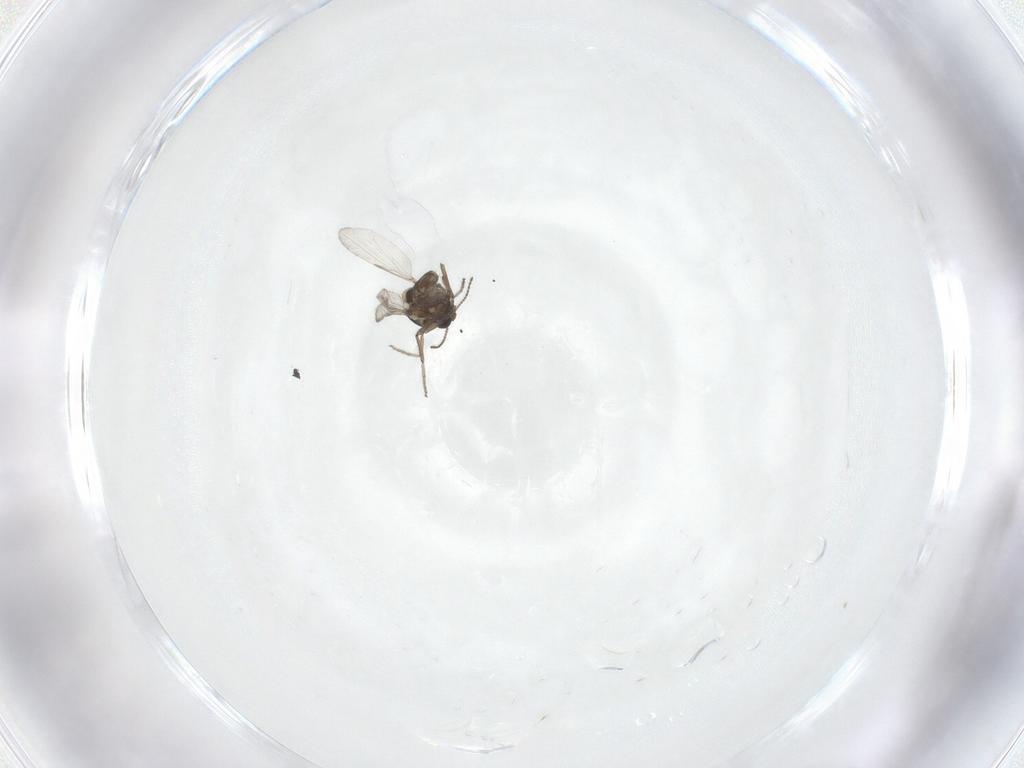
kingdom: Animalia
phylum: Arthropoda
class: Insecta
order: Diptera
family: Ceratopogonidae
